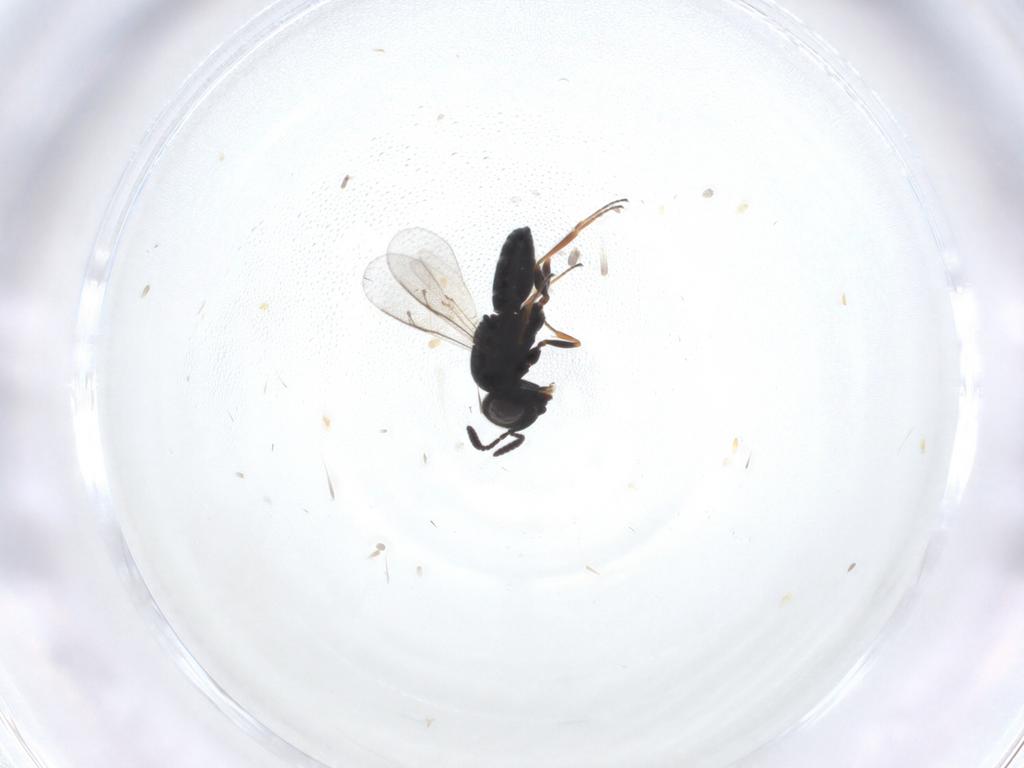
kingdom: Animalia
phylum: Arthropoda
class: Insecta
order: Hymenoptera
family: Scelionidae
